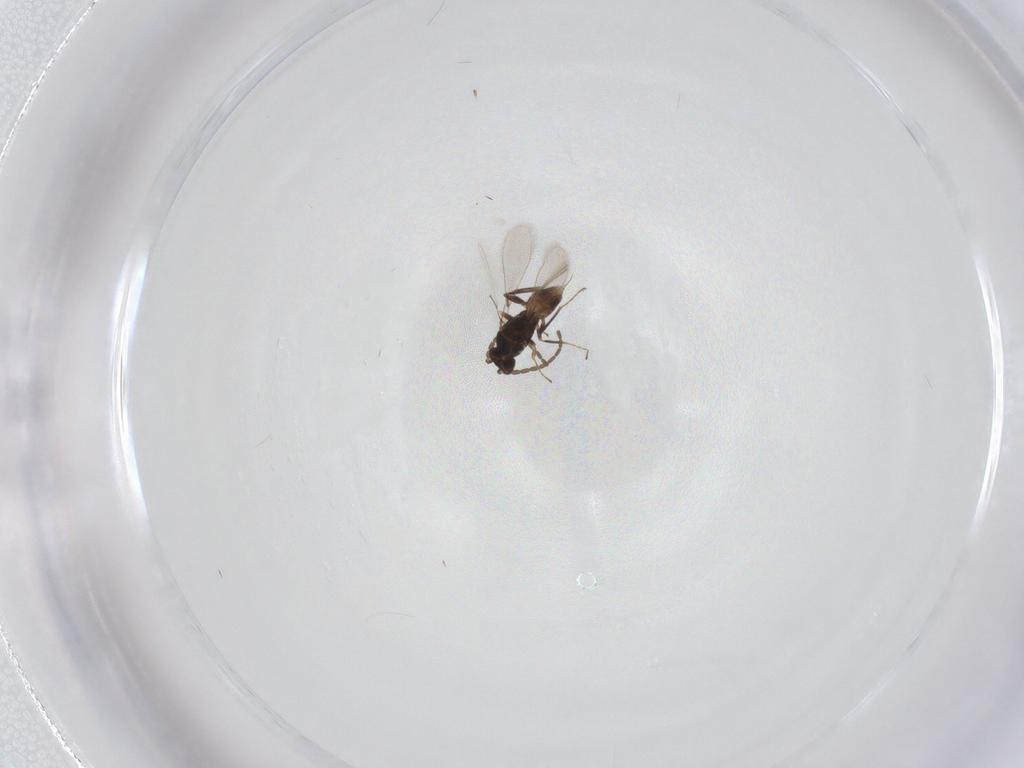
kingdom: Animalia
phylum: Arthropoda
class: Insecta
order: Hymenoptera
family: Mymaridae
